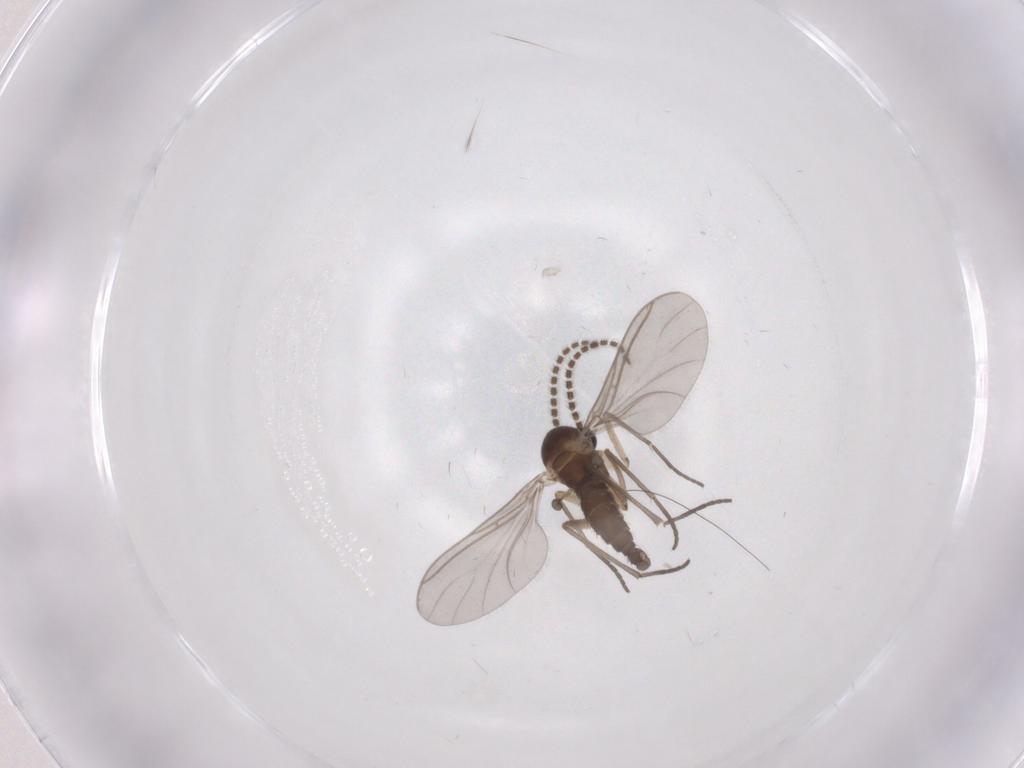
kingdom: Animalia
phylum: Arthropoda
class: Insecta
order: Diptera
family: Sciaridae
